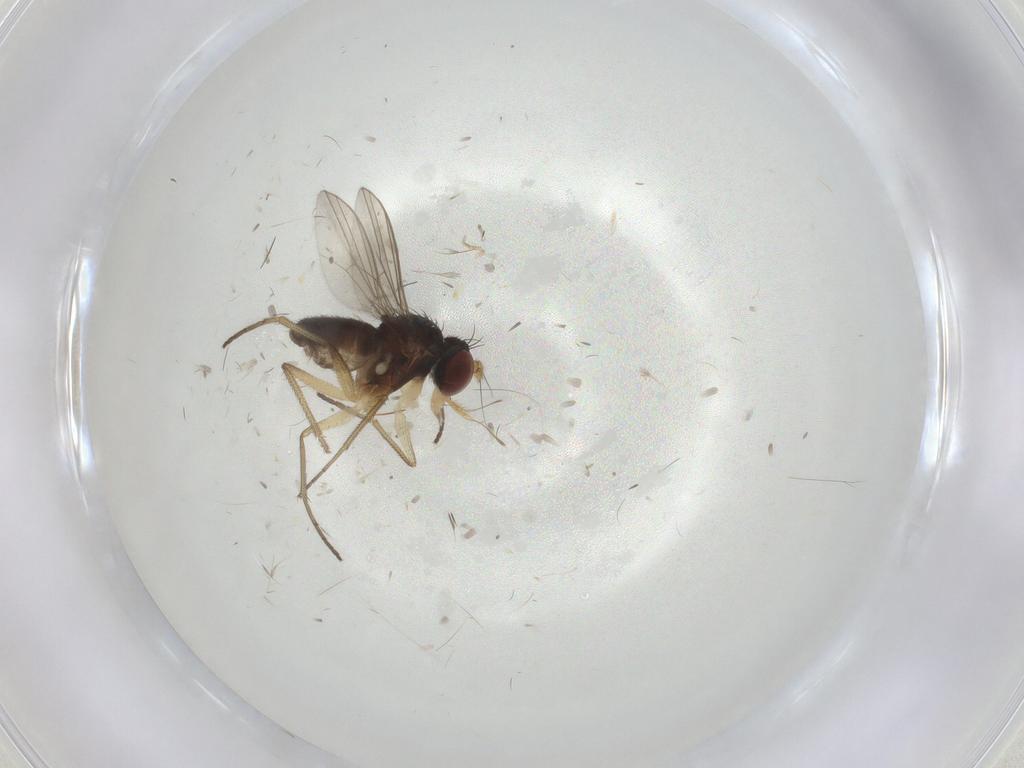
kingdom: Animalia
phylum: Arthropoda
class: Insecta
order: Diptera
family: Dolichopodidae
